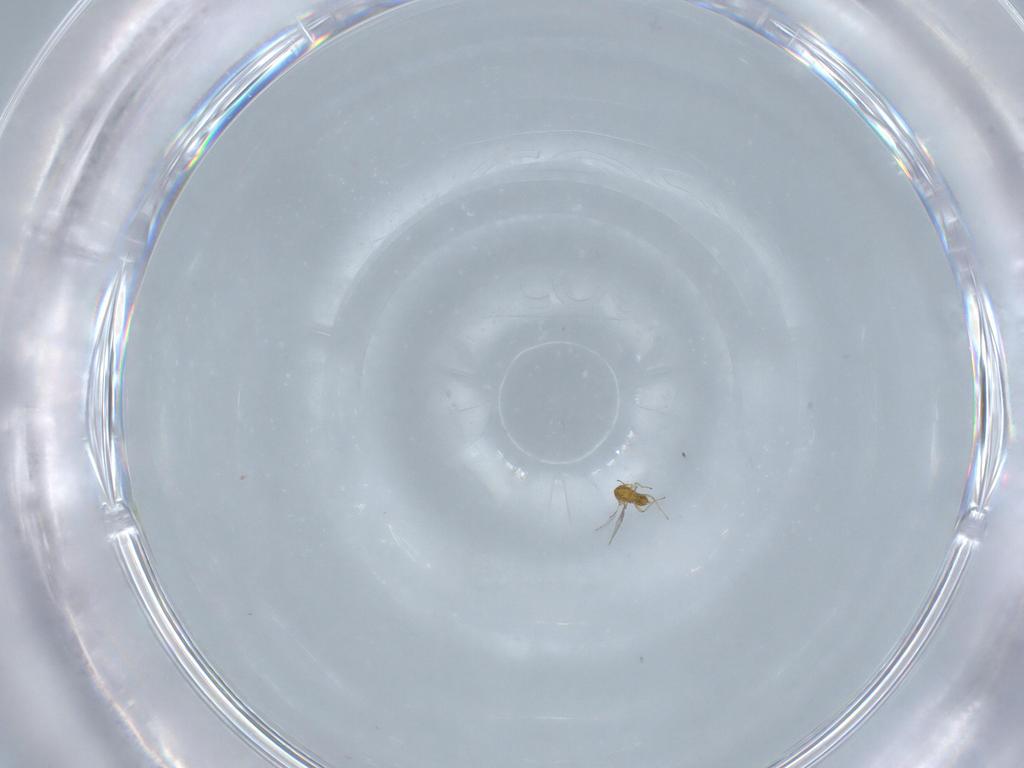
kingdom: Animalia
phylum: Arthropoda
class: Insecta
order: Hymenoptera
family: Trichogrammatidae
